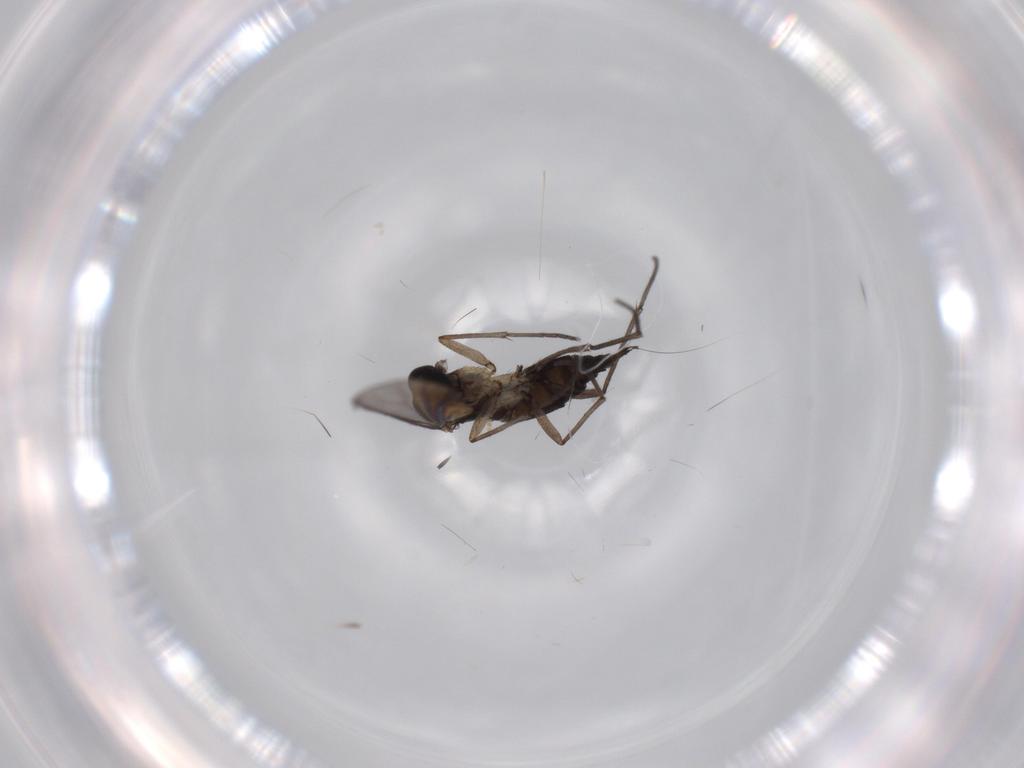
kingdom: Animalia
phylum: Arthropoda
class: Insecta
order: Diptera
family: Sciaridae
